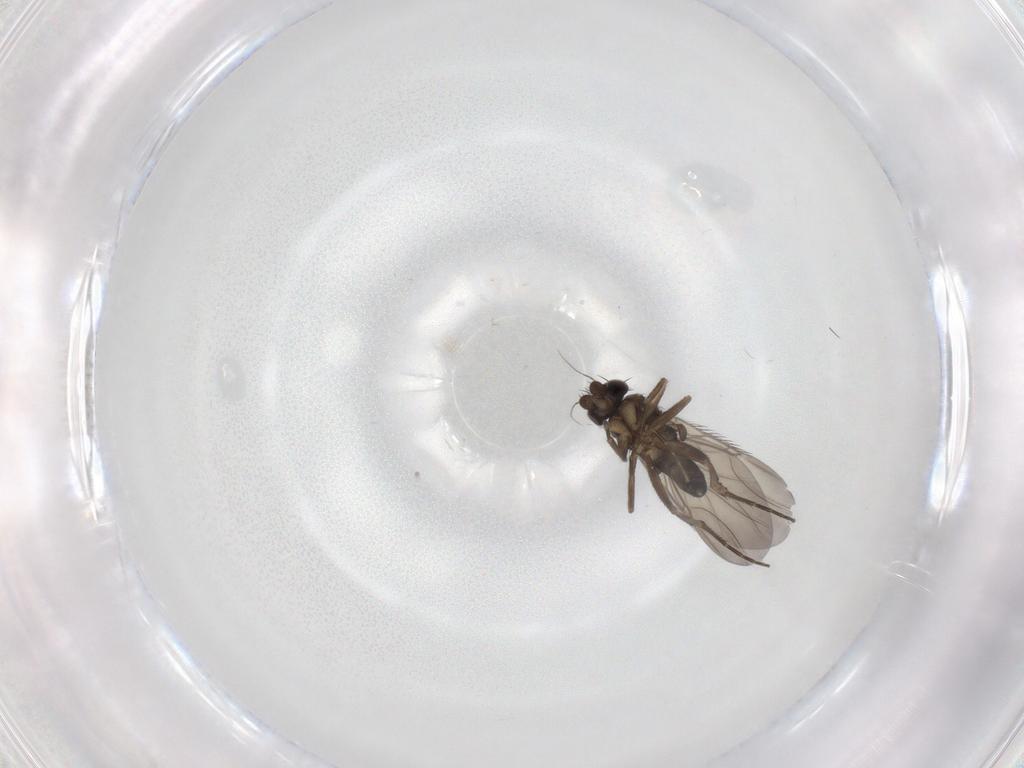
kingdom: Animalia
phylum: Arthropoda
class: Insecta
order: Diptera
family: Phoridae
